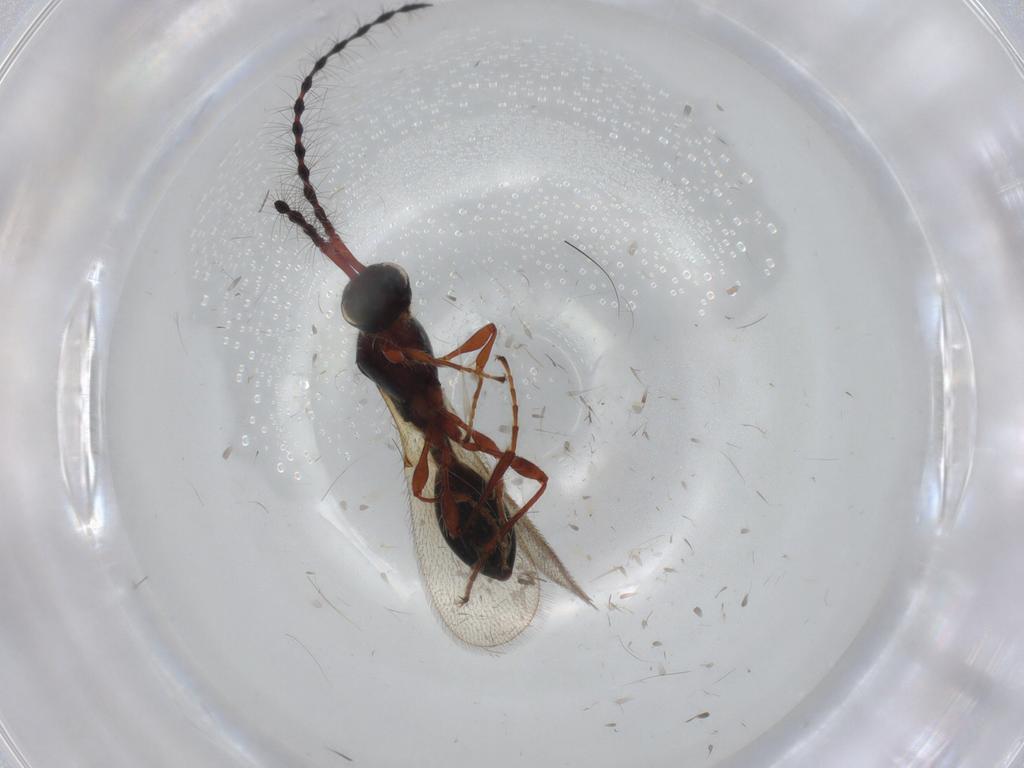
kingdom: Animalia
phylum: Arthropoda
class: Insecta
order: Hymenoptera
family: Diapriidae
